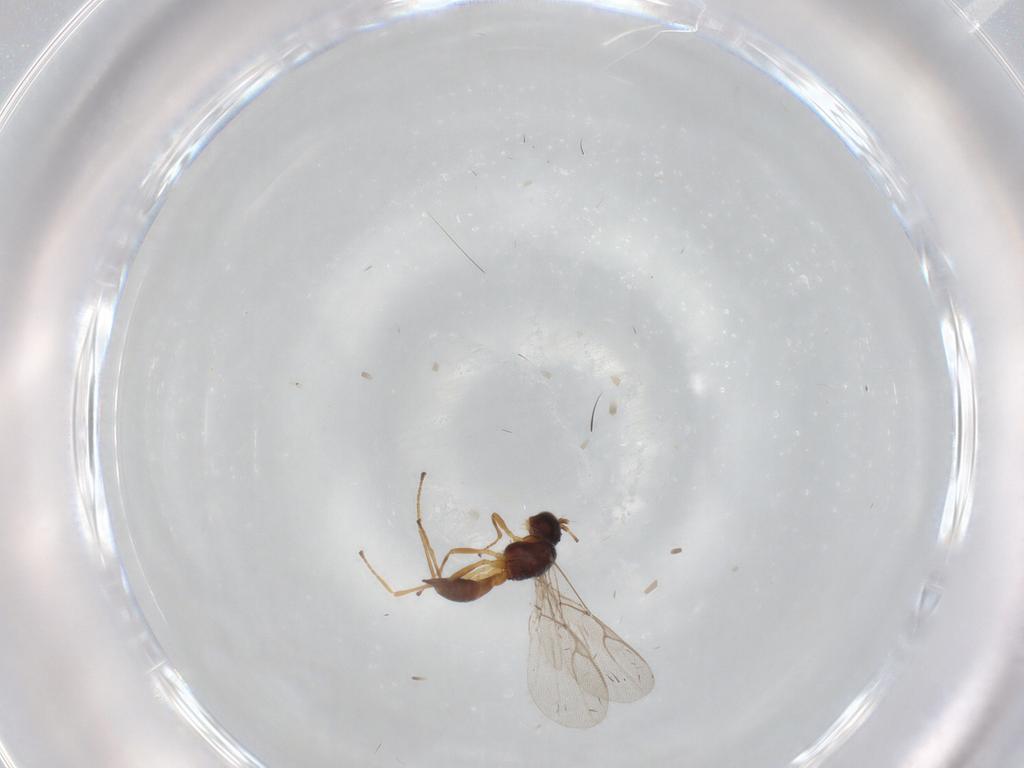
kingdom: Animalia
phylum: Arthropoda
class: Insecta
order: Hymenoptera
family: Braconidae
